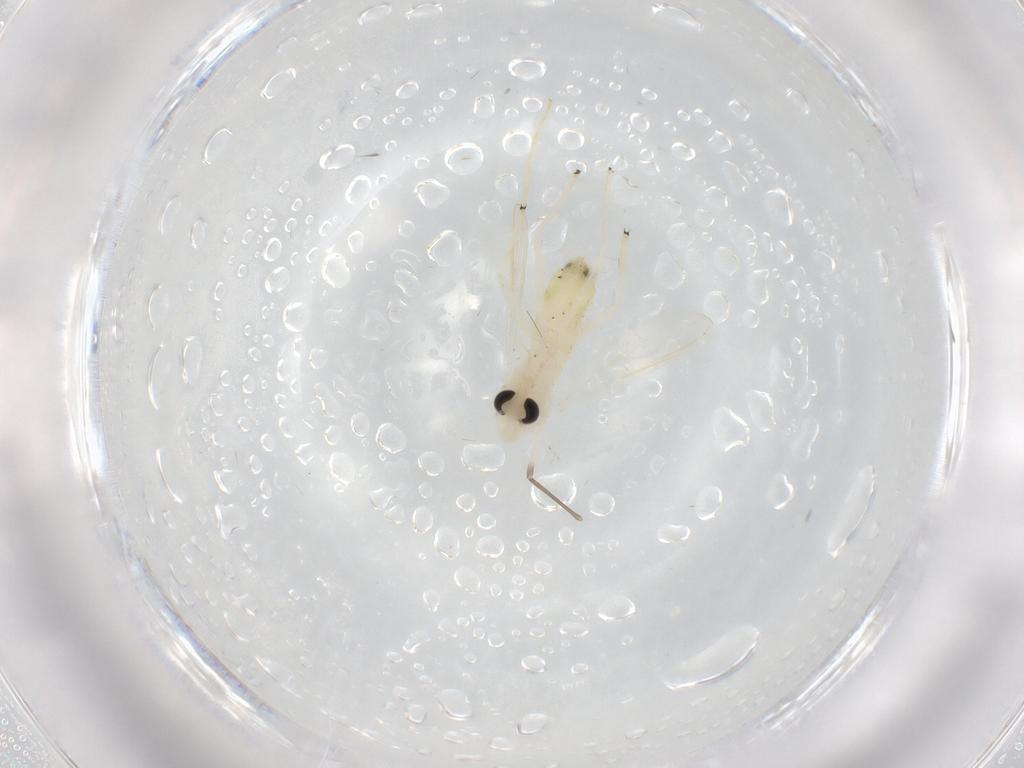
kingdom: Animalia
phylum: Arthropoda
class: Insecta
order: Diptera
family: Chironomidae
